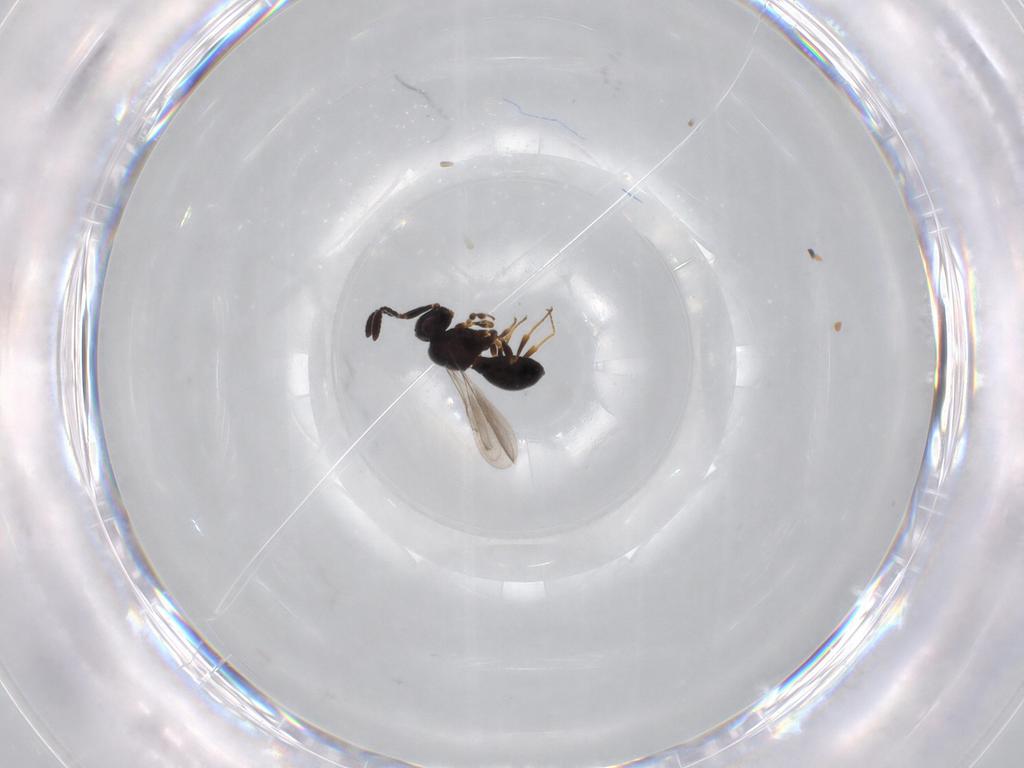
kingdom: Animalia
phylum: Arthropoda
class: Insecta
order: Hymenoptera
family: Scelionidae
